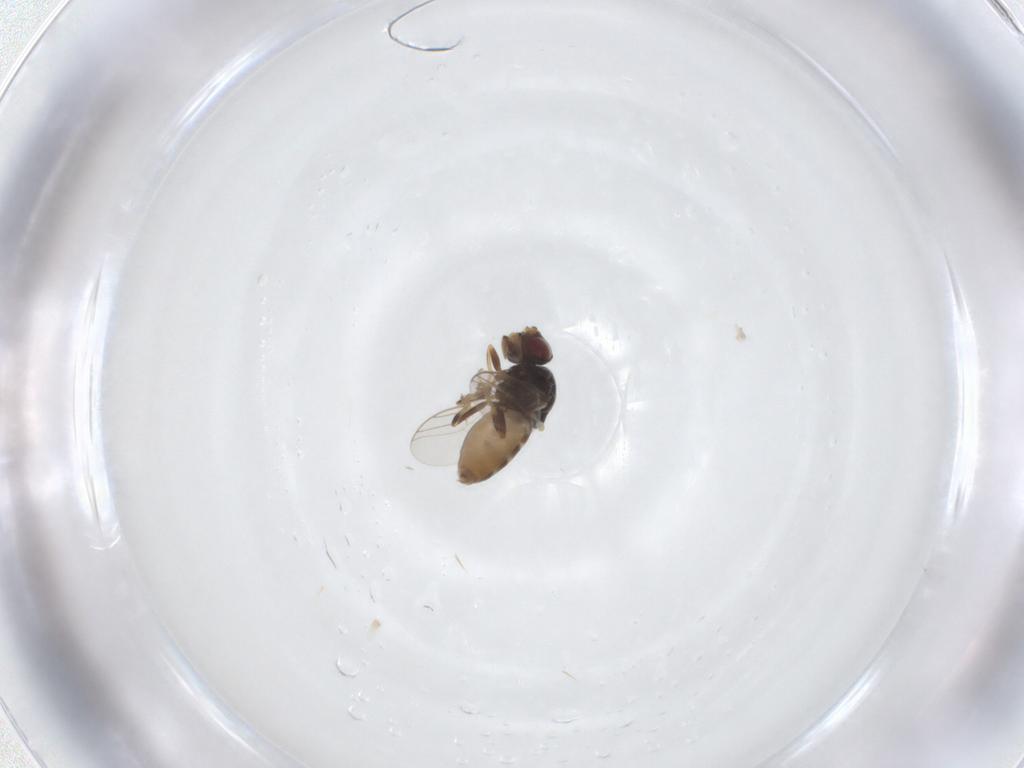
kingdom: Animalia
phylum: Arthropoda
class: Insecta
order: Diptera
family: Chloropidae
